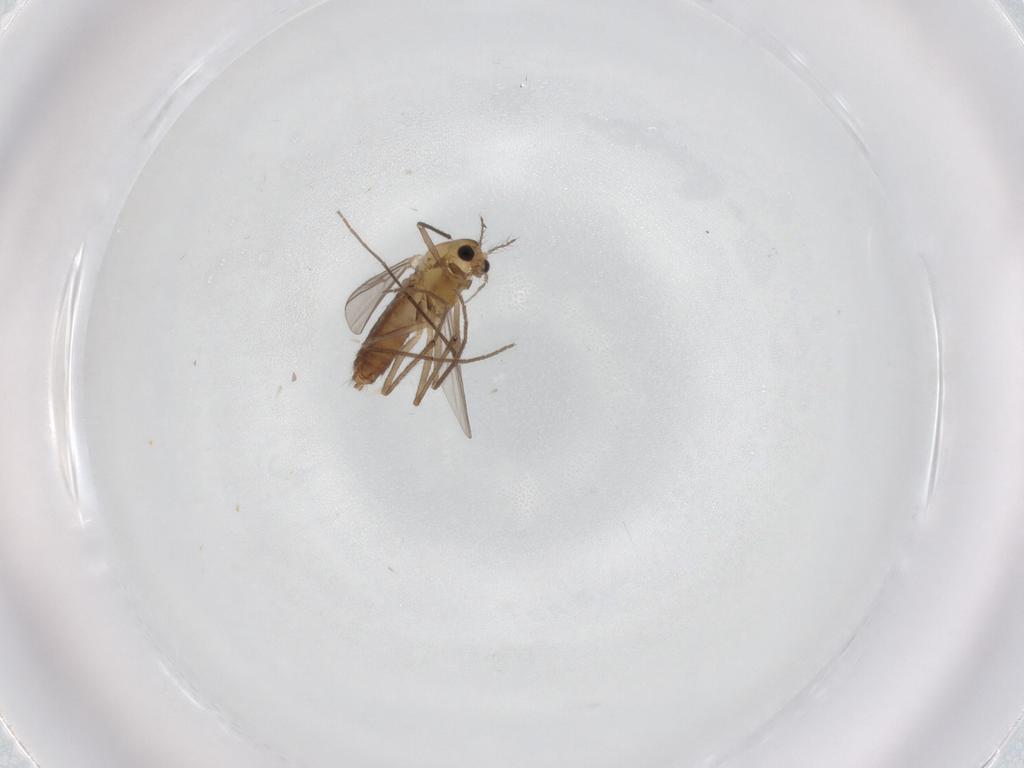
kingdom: Animalia
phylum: Arthropoda
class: Insecta
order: Diptera
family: Chironomidae
